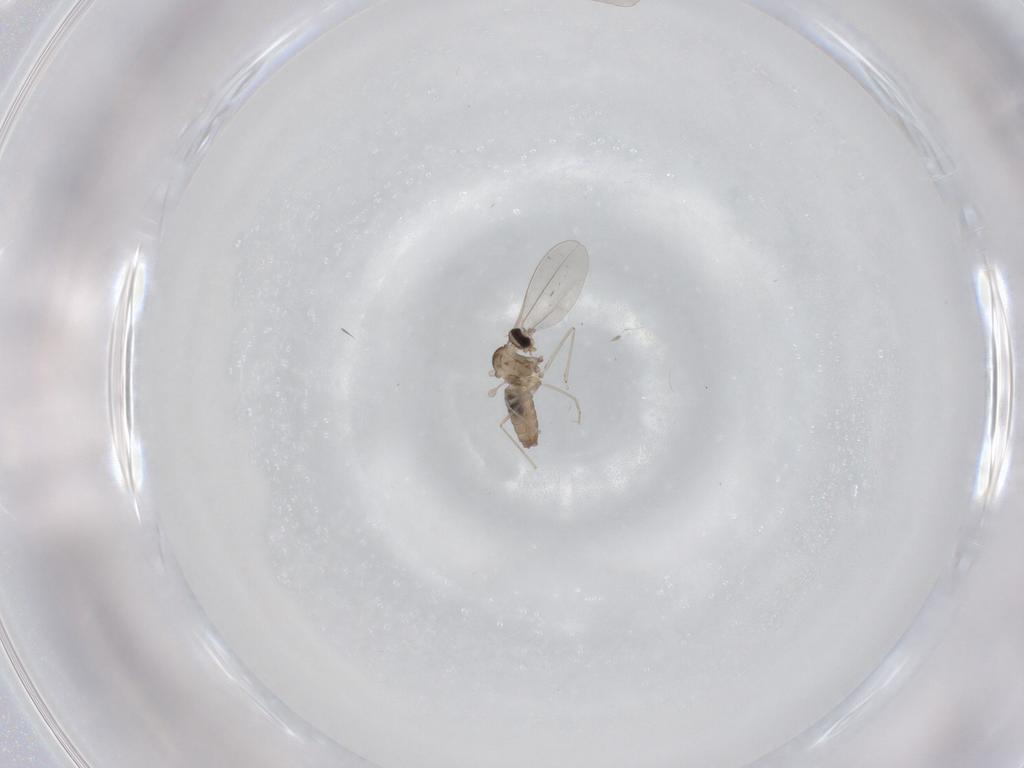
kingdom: Animalia
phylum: Arthropoda
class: Insecta
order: Diptera
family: Cecidomyiidae
